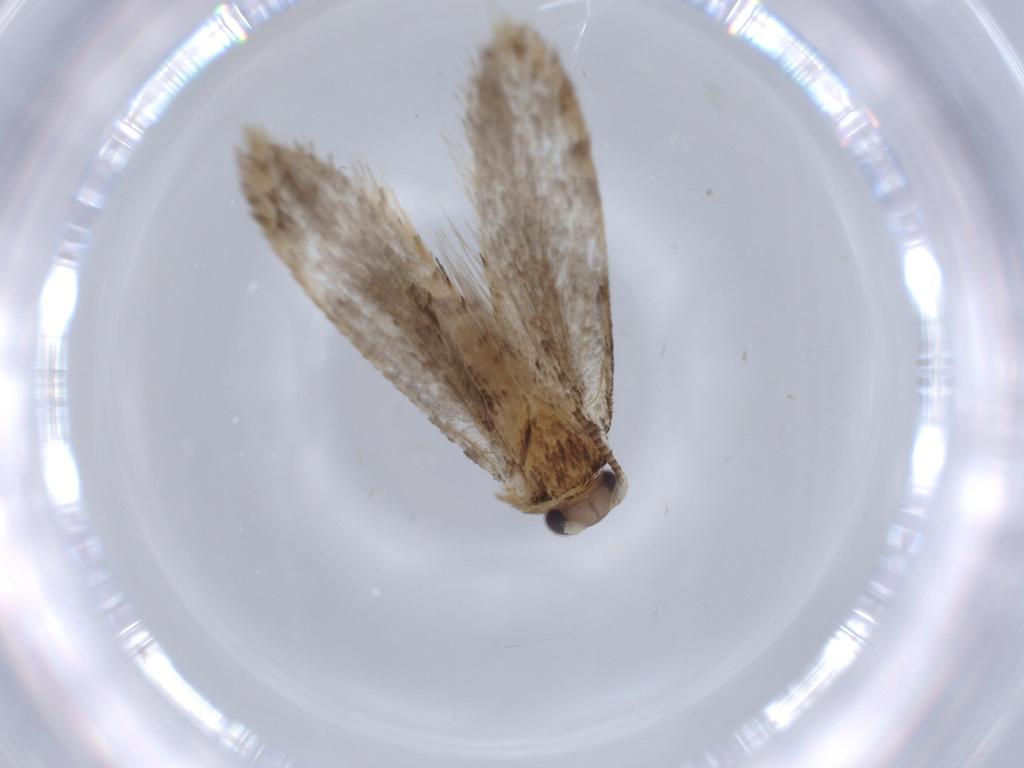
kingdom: Animalia
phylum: Arthropoda
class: Insecta
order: Lepidoptera
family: Tineidae
